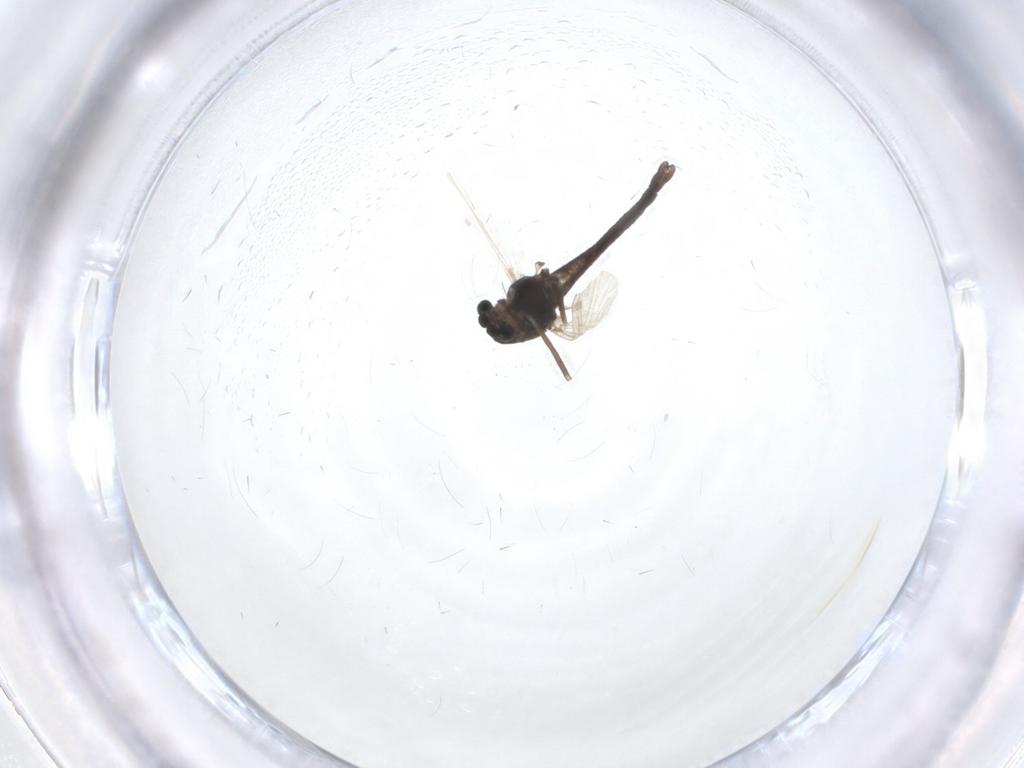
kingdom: Animalia
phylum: Arthropoda
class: Insecta
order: Diptera
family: Chironomidae
